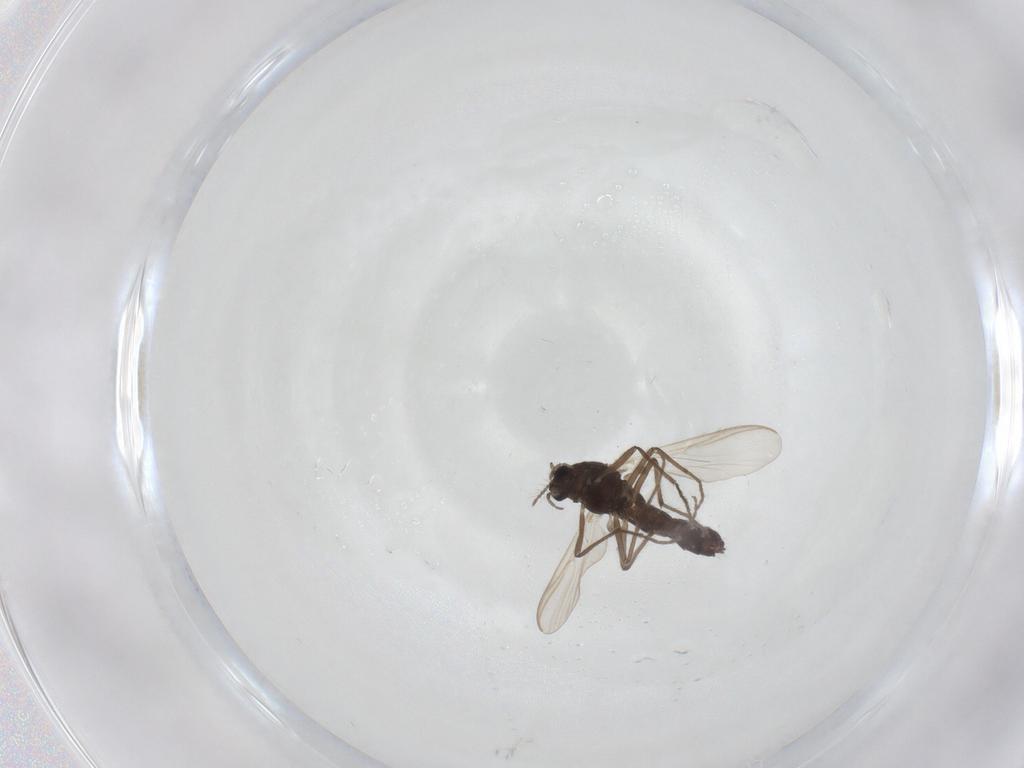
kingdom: Animalia
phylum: Arthropoda
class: Insecta
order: Diptera
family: Chironomidae
